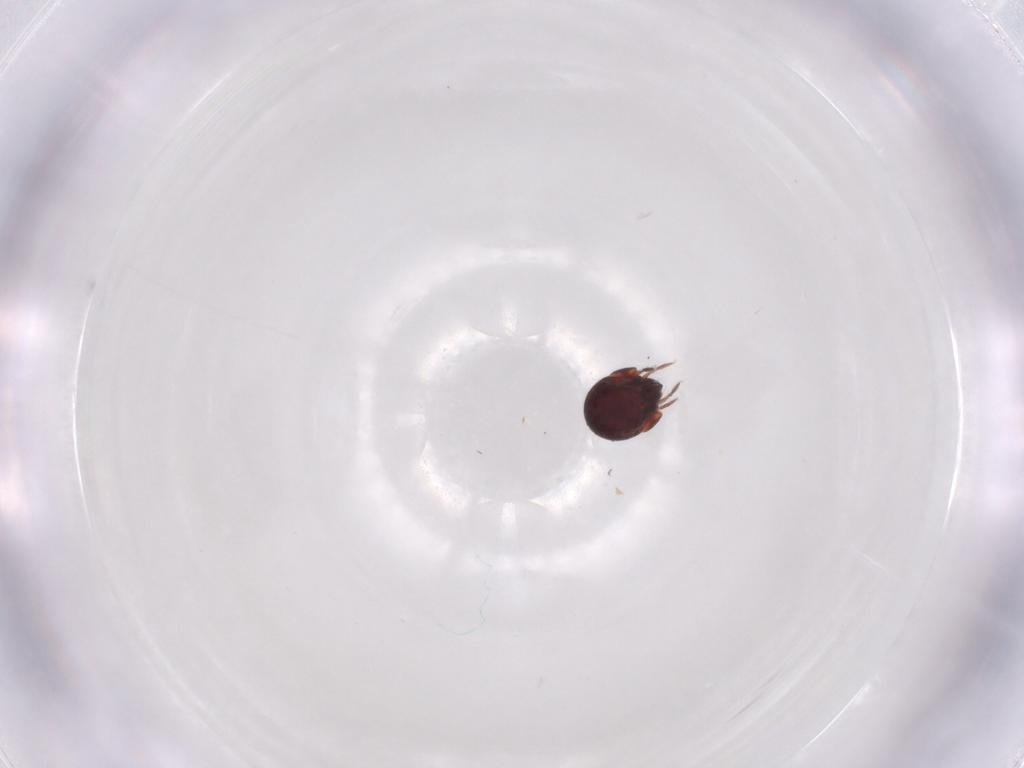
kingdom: Animalia
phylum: Arthropoda
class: Arachnida
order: Sarcoptiformes
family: Humerobatidae
